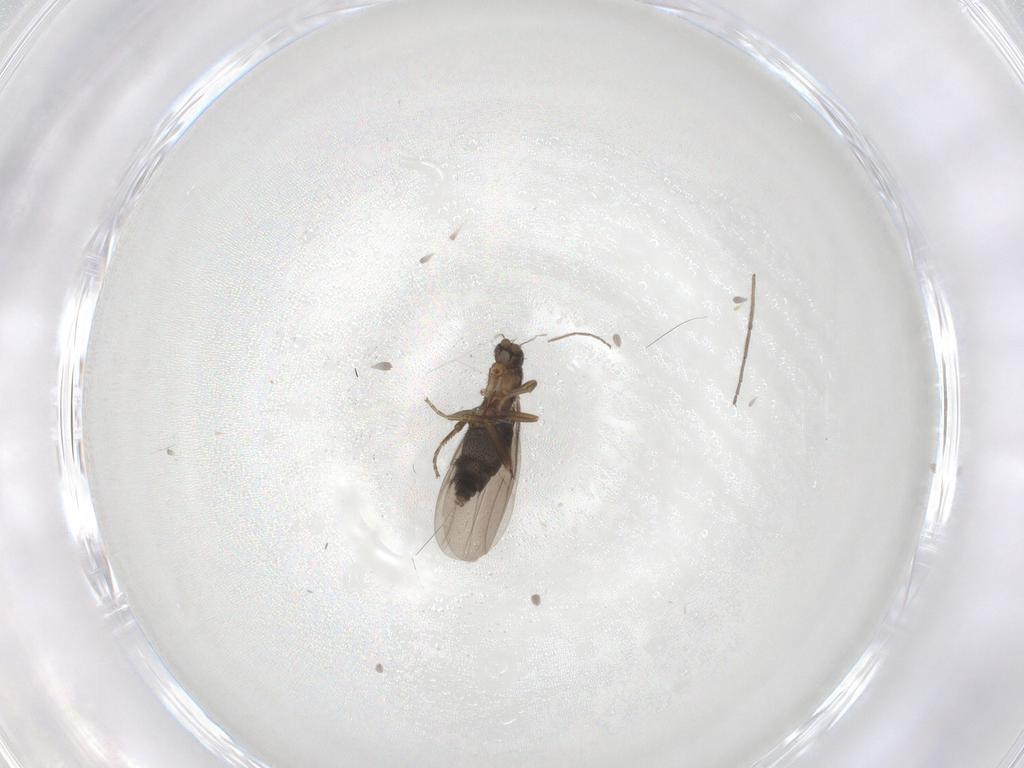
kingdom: Animalia
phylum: Arthropoda
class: Insecta
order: Diptera
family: Phoridae
